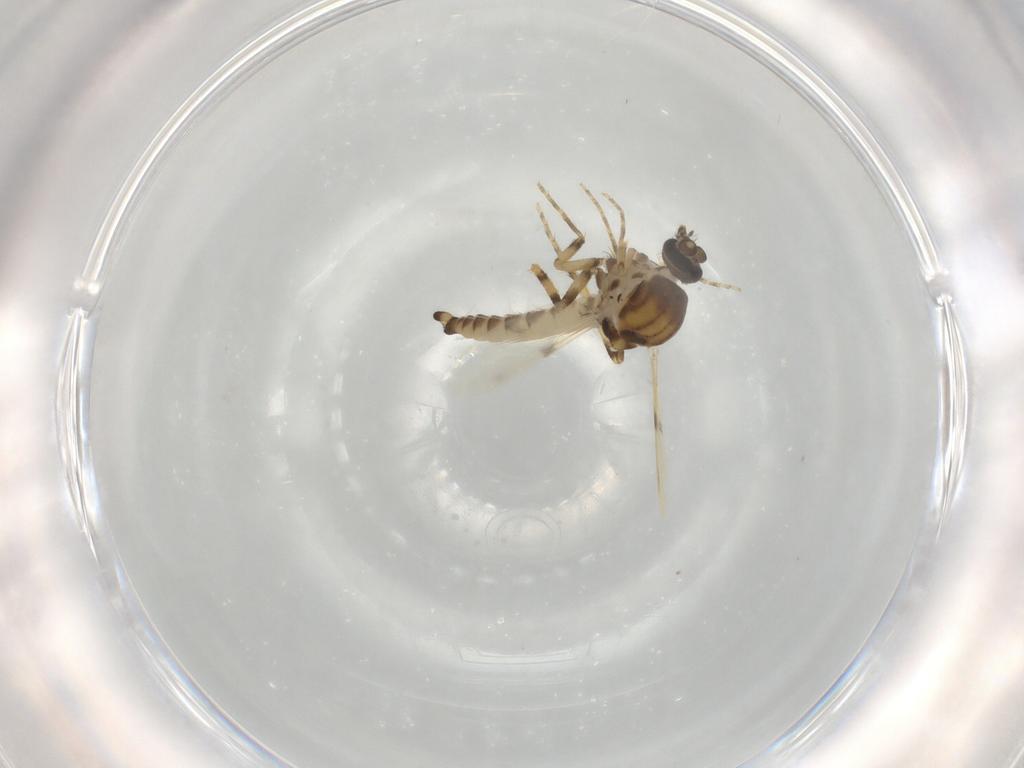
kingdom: Animalia
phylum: Arthropoda
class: Insecta
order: Diptera
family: Ceratopogonidae
